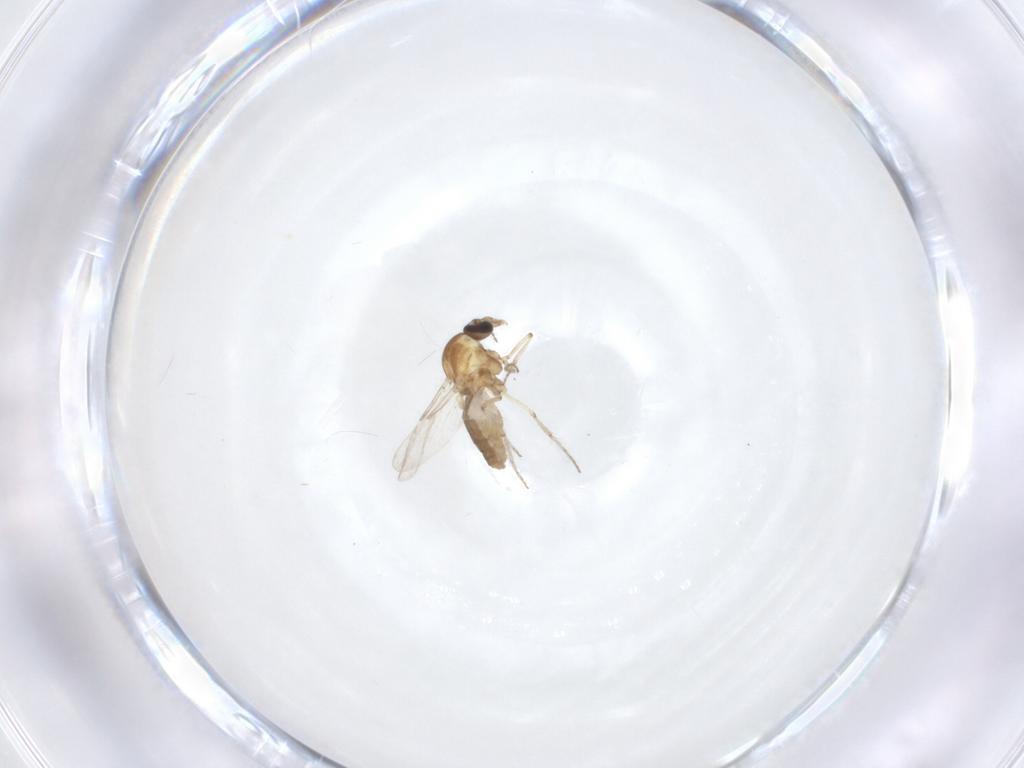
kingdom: Animalia
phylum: Arthropoda
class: Insecta
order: Diptera
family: Ceratopogonidae
